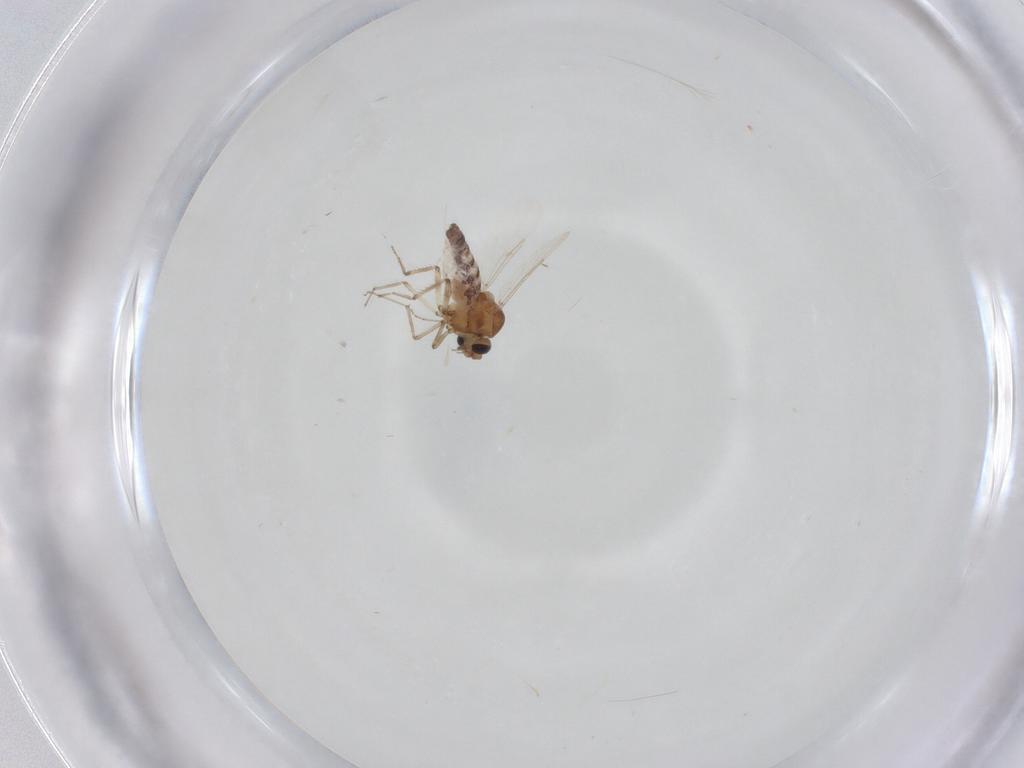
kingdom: Animalia
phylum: Arthropoda
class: Insecta
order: Diptera
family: Ceratopogonidae
